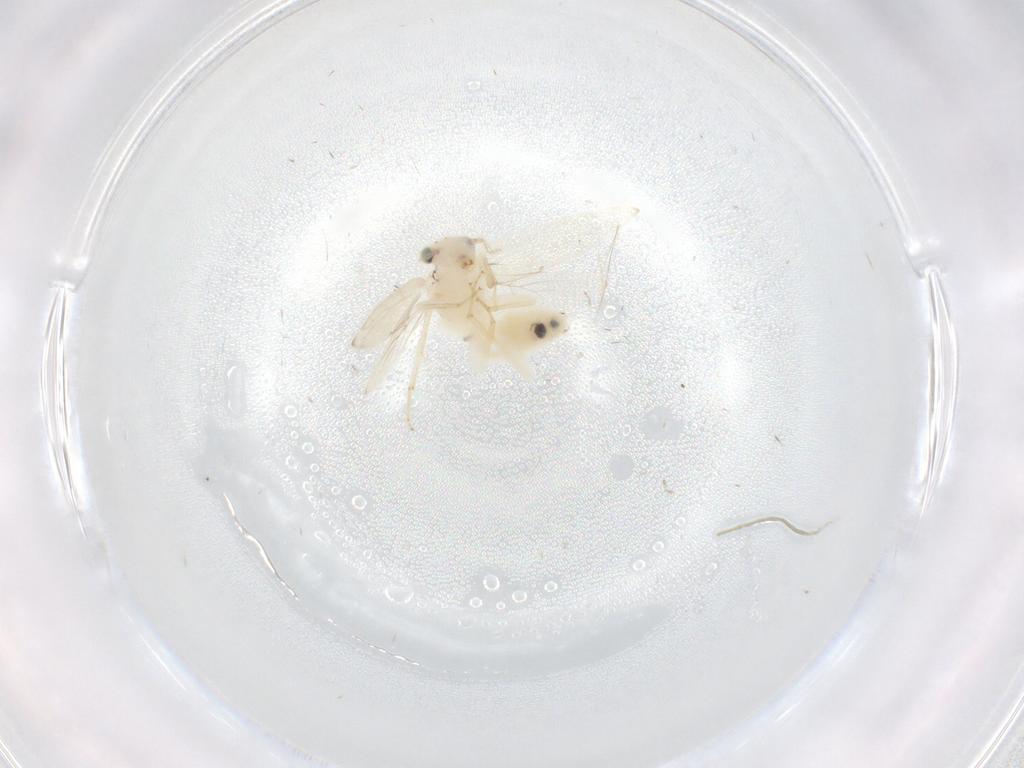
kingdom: Animalia
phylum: Arthropoda
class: Insecta
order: Psocodea
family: Lepidopsocidae
